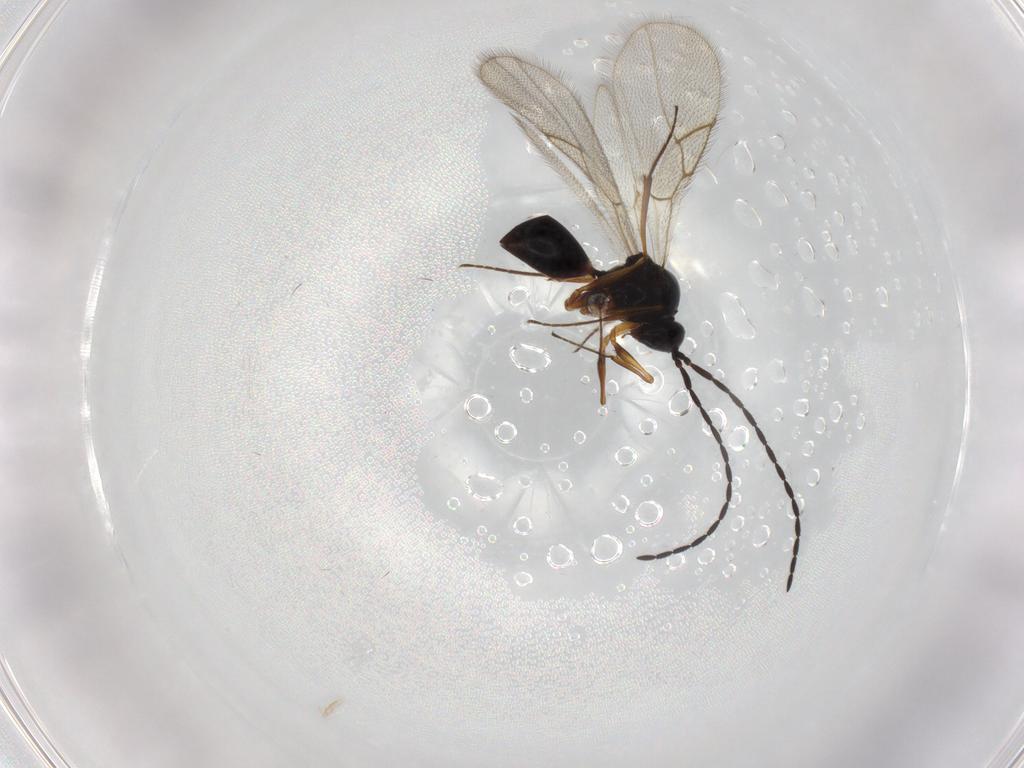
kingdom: Animalia
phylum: Arthropoda
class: Insecta
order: Hymenoptera
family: Figitidae
